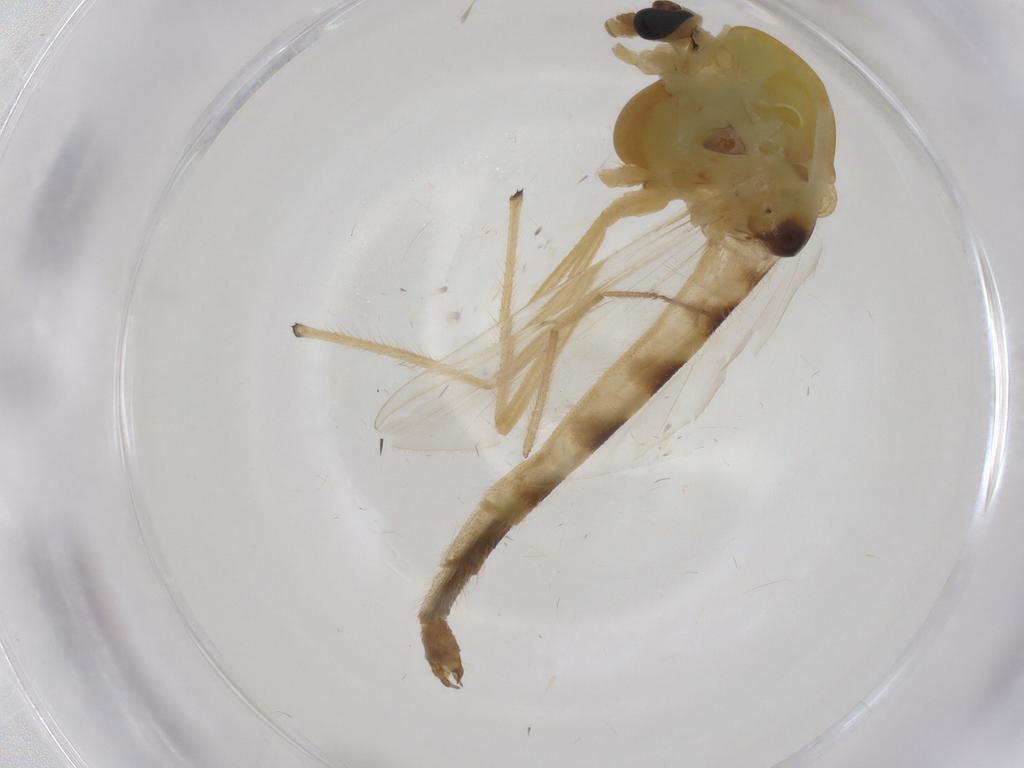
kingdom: Animalia
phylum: Arthropoda
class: Insecta
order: Diptera
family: Chironomidae
